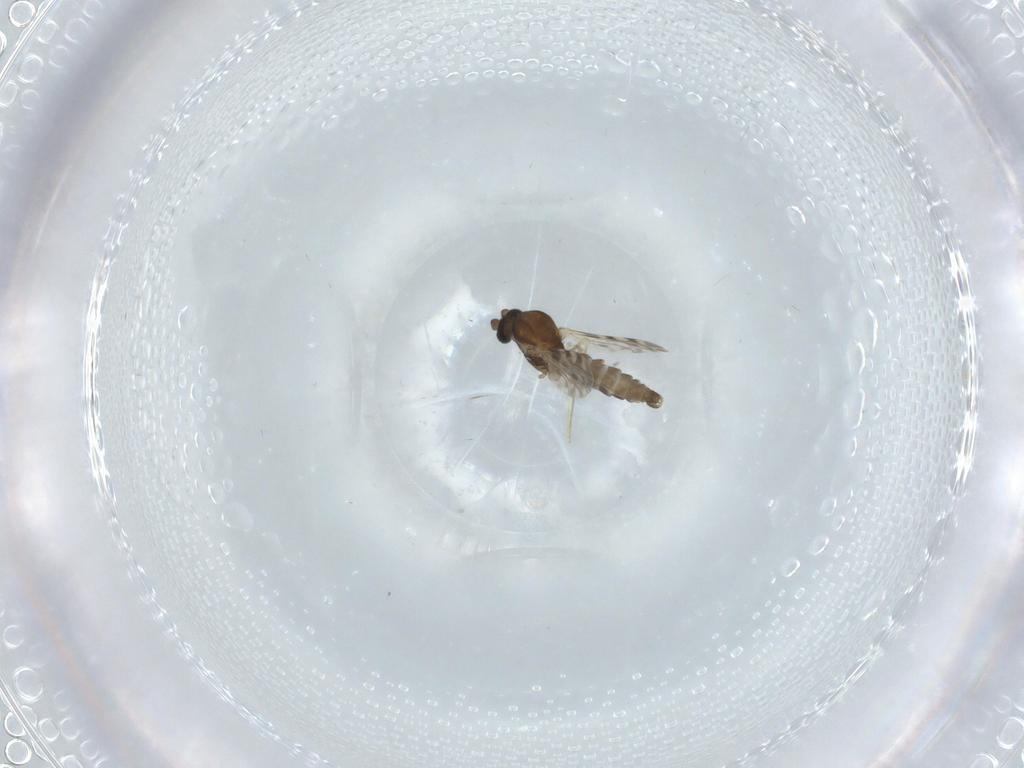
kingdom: Animalia
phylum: Arthropoda
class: Insecta
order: Diptera
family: Ceratopogonidae
